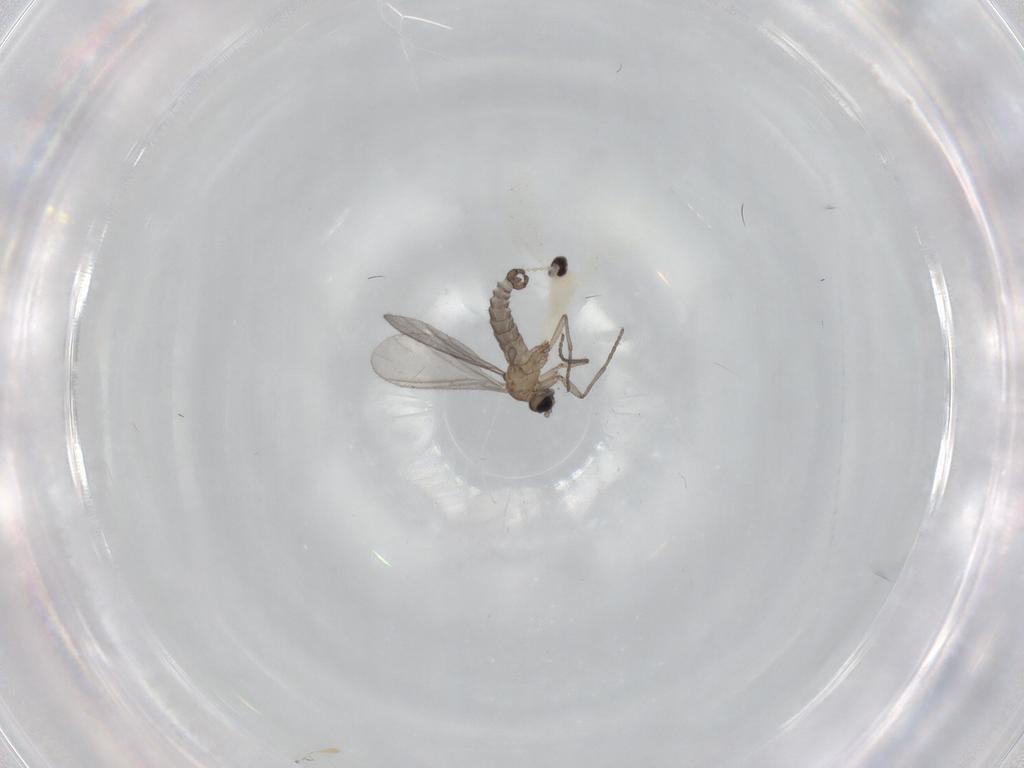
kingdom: Animalia
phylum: Arthropoda
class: Insecta
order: Diptera
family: Sciaridae
